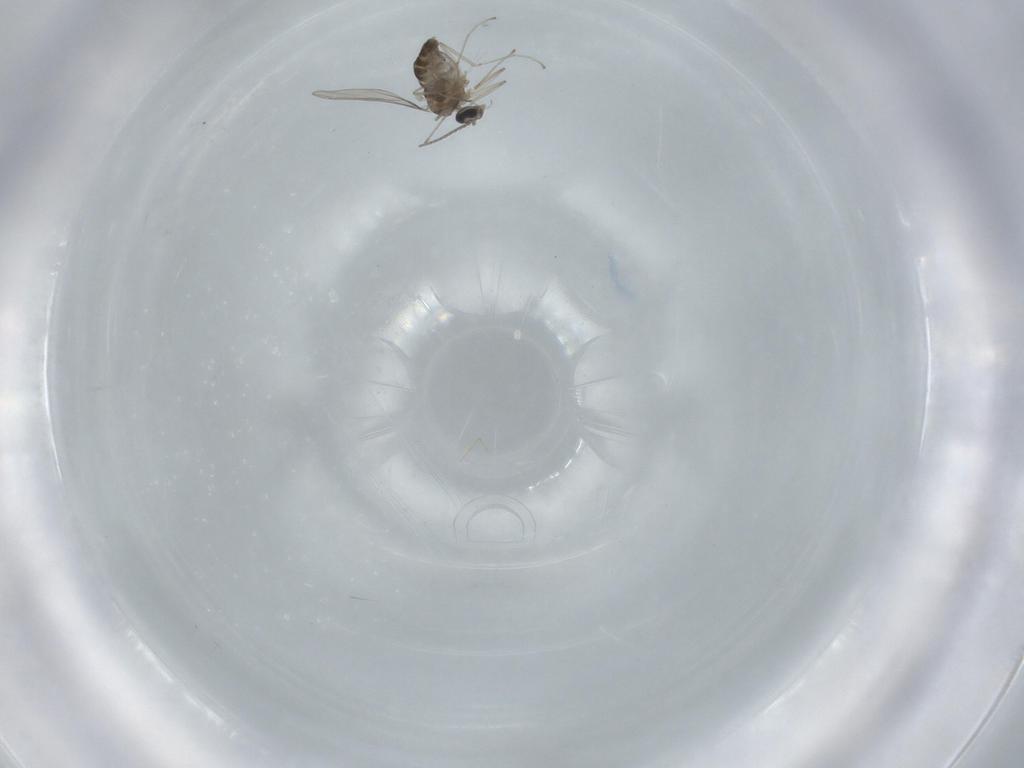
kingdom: Animalia
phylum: Arthropoda
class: Insecta
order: Diptera
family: Cecidomyiidae
